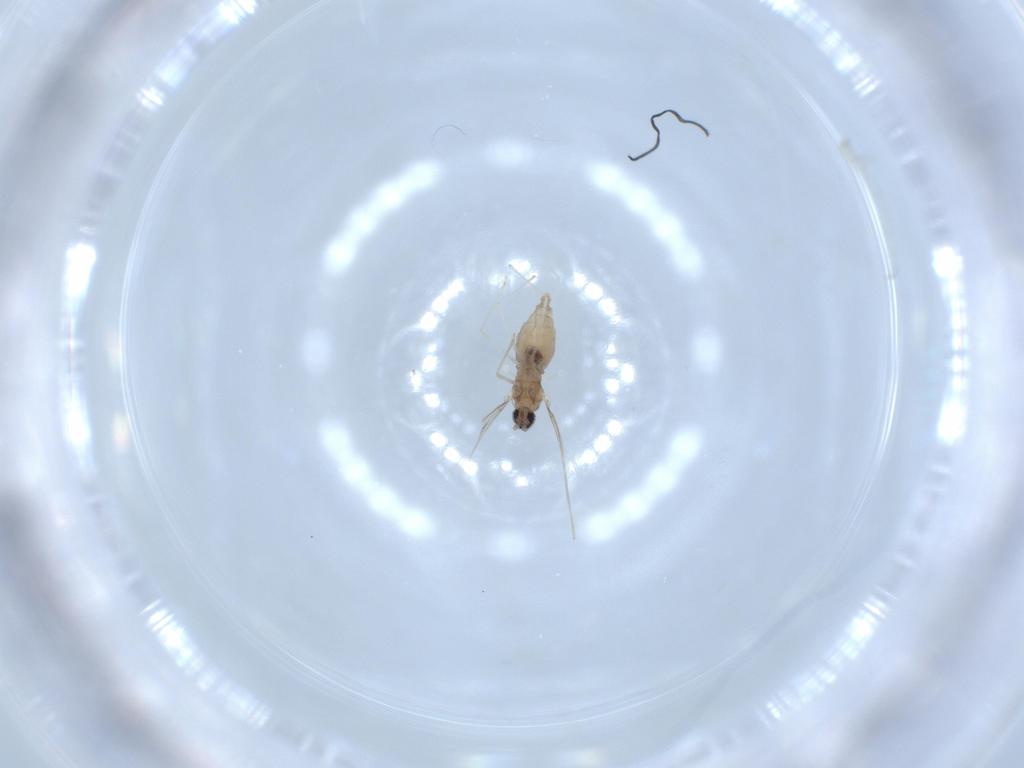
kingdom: Animalia
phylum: Arthropoda
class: Insecta
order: Diptera
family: Cecidomyiidae
